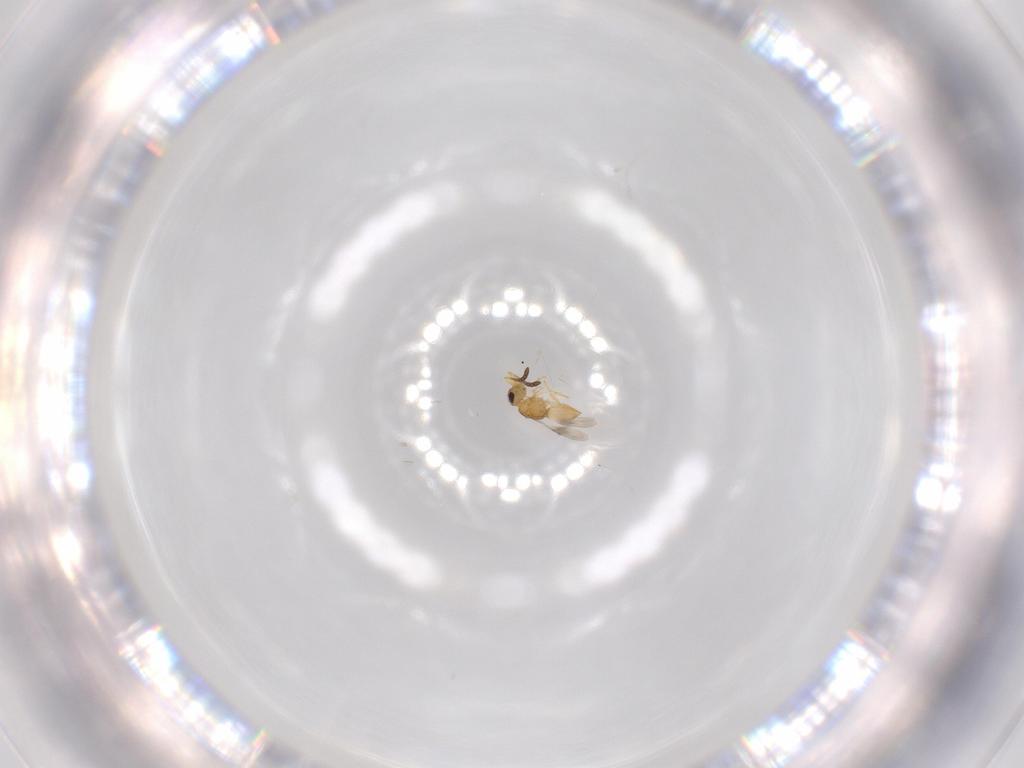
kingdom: Animalia
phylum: Arthropoda
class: Insecta
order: Hymenoptera
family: Ceraphronidae
